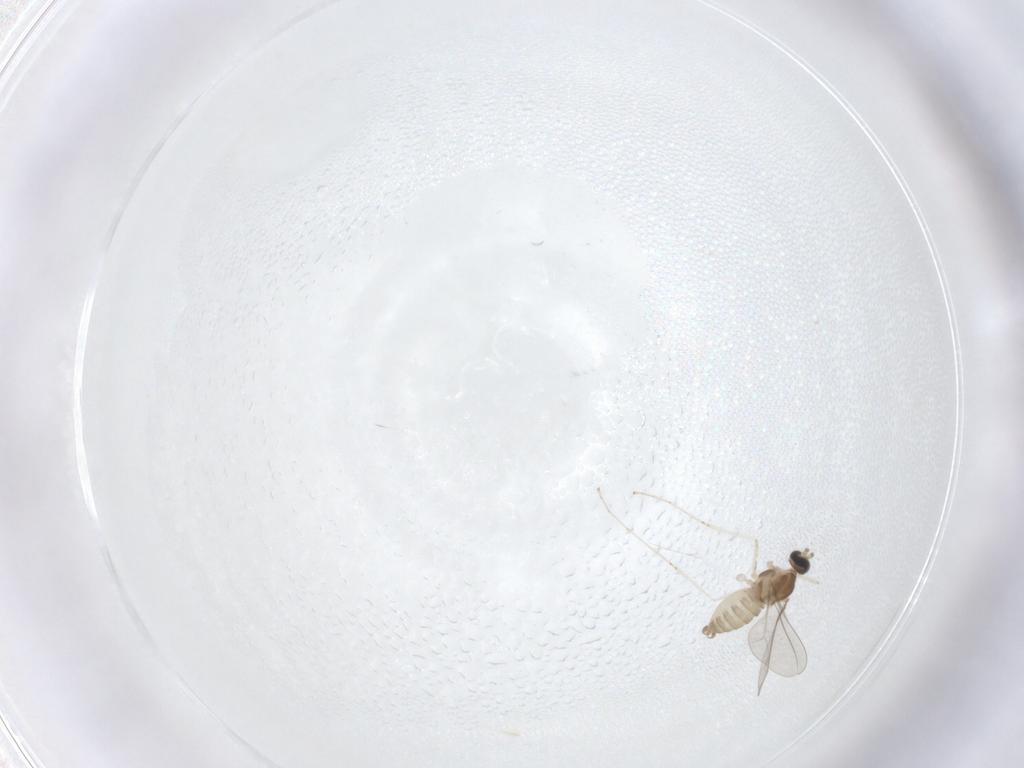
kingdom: Animalia
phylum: Arthropoda
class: Insecta
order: Diptera
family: Cecidomyiidae
